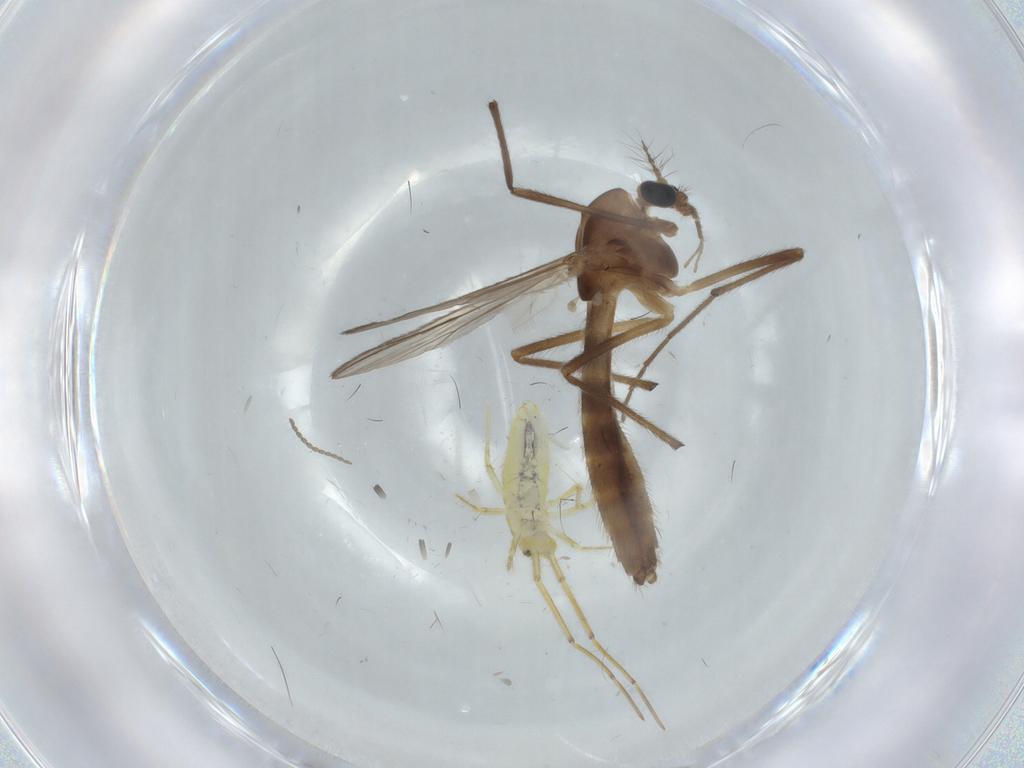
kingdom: Animalia
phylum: Arthropoda
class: Insecta
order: Diptera
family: Chironomidae
